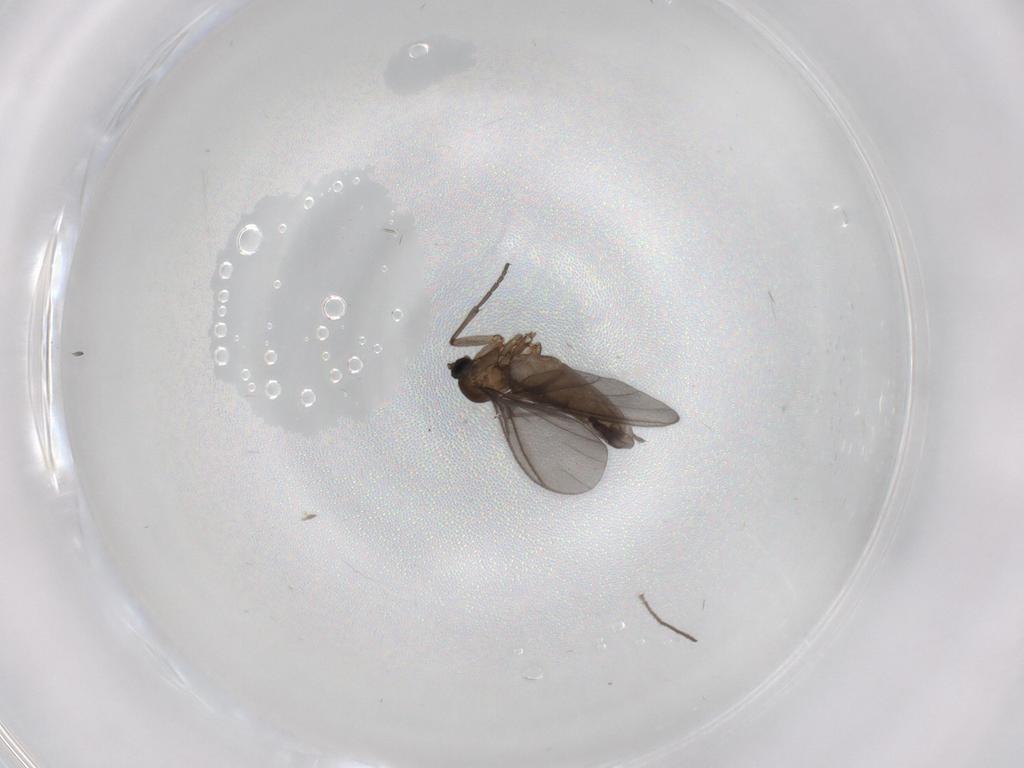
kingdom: Animalia
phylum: Arthropoda
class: Insecta
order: Diptera
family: Sciaridae
